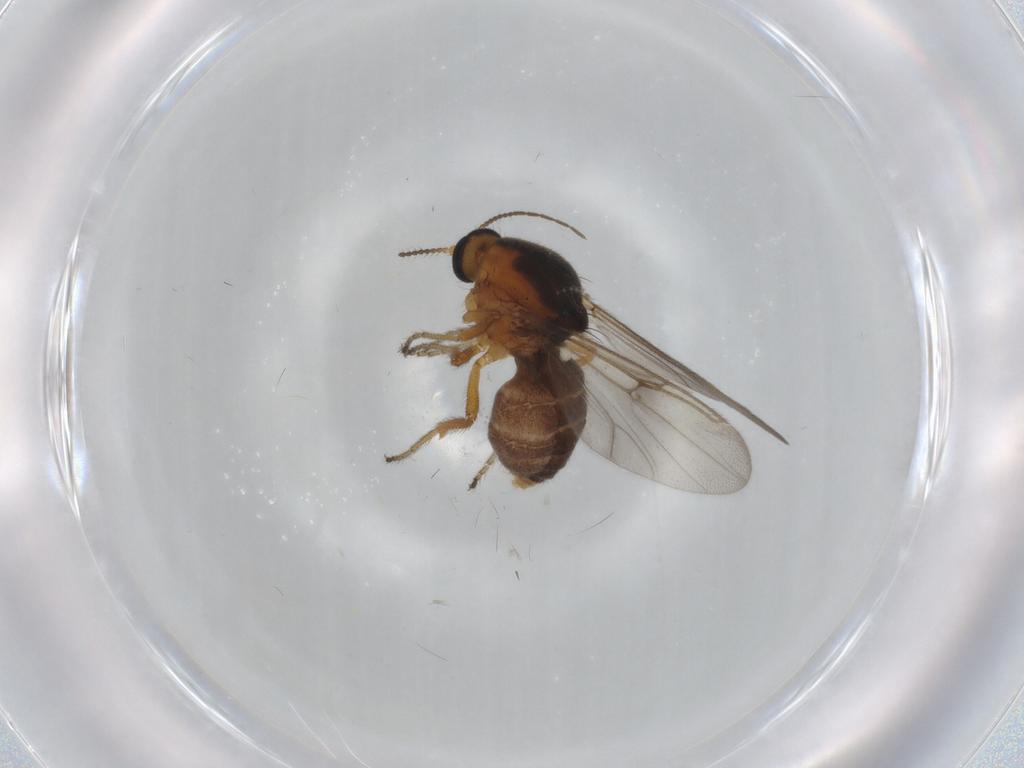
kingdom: Animalia
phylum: Arthropoda
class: Insecta
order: Diptera
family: Ceratopogonidae
